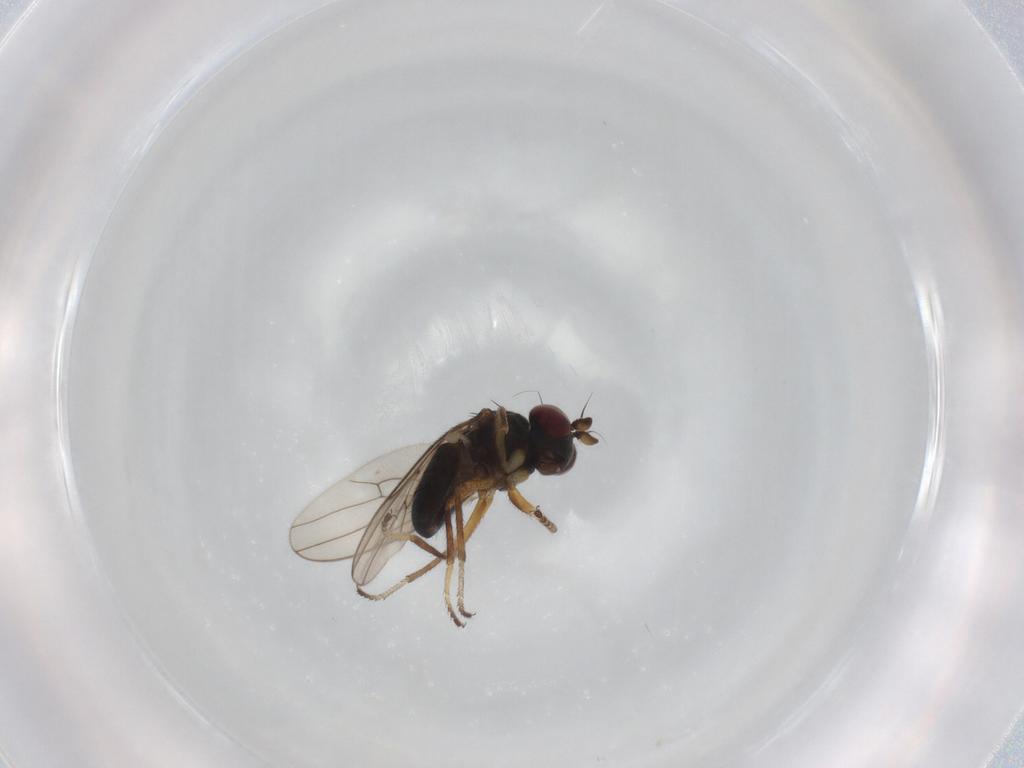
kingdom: Animalia
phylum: Arthropoda
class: Insecta
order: Diptera
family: Ephydridae
